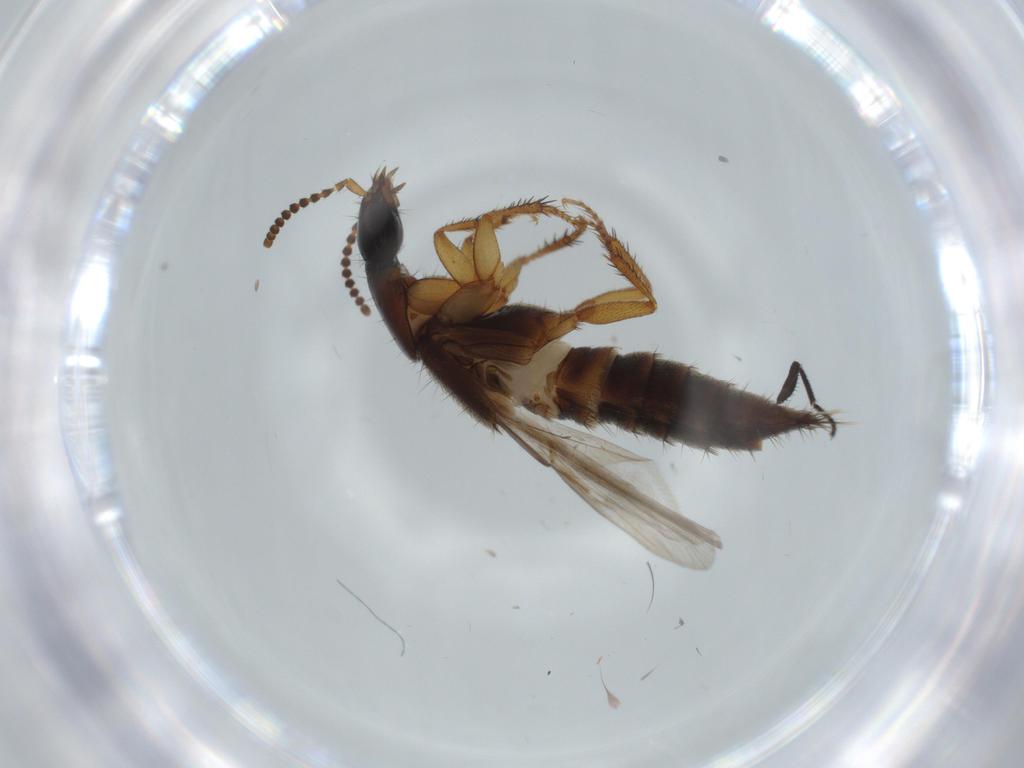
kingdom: Animalia
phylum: Arthropoda
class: Insecta
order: Coleoptera
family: Staphylinidae
